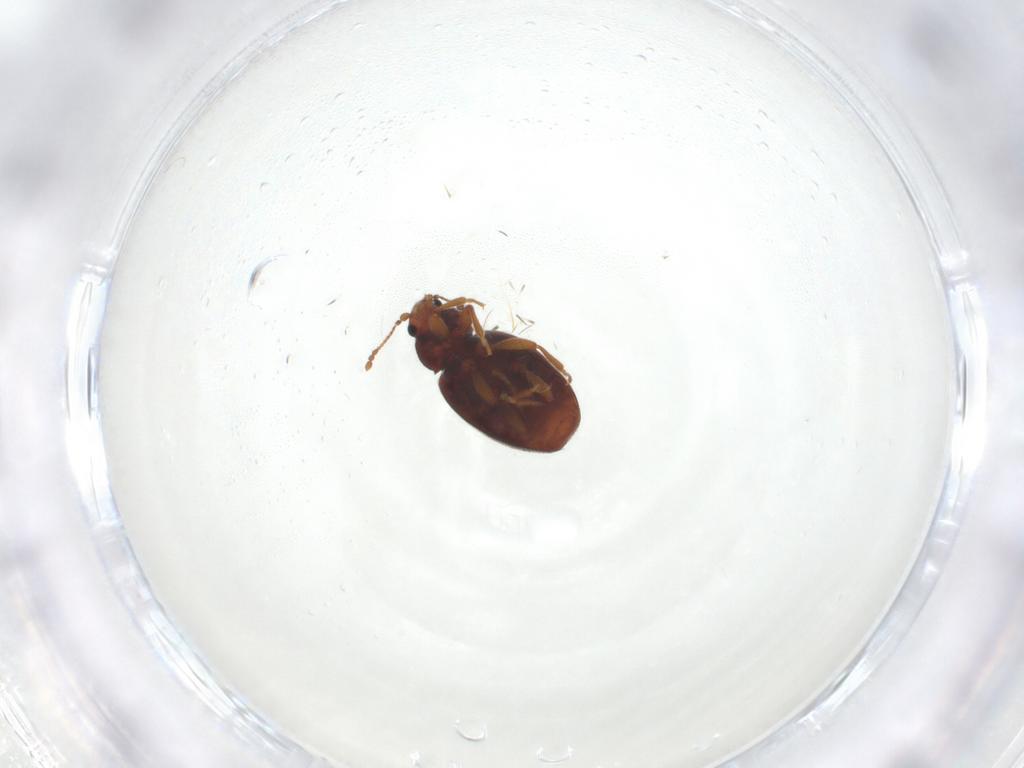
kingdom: Animalia
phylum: Arthropoda
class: Insecta
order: Coleoptera
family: Latridiidae
